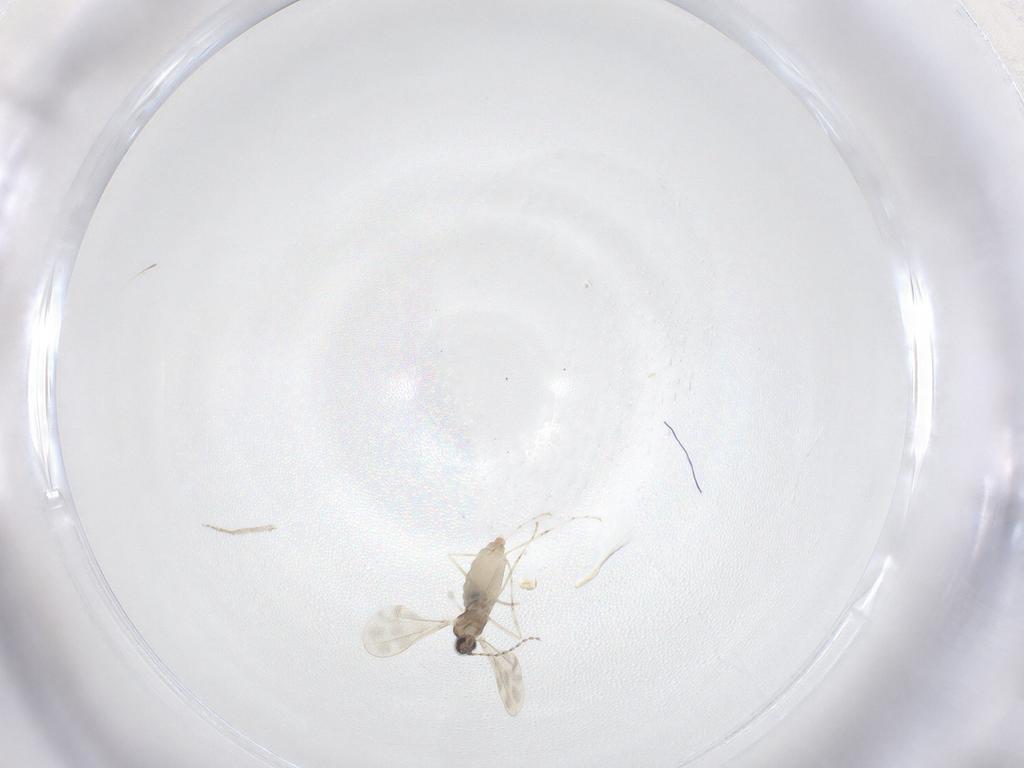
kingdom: Animalia
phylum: Arthropoda
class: Insecta
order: Diptera
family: Cecidomyiidae
